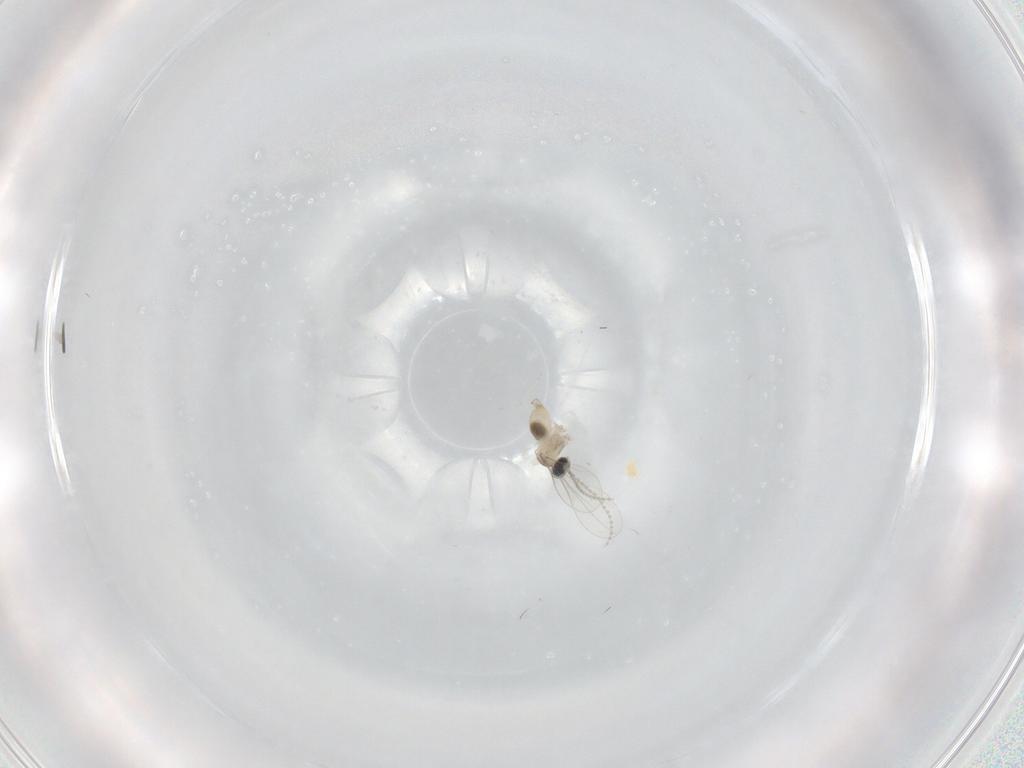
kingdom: Animalia
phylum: Arthropoda
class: Insecta
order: Diptera
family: Cecidomyiidae
